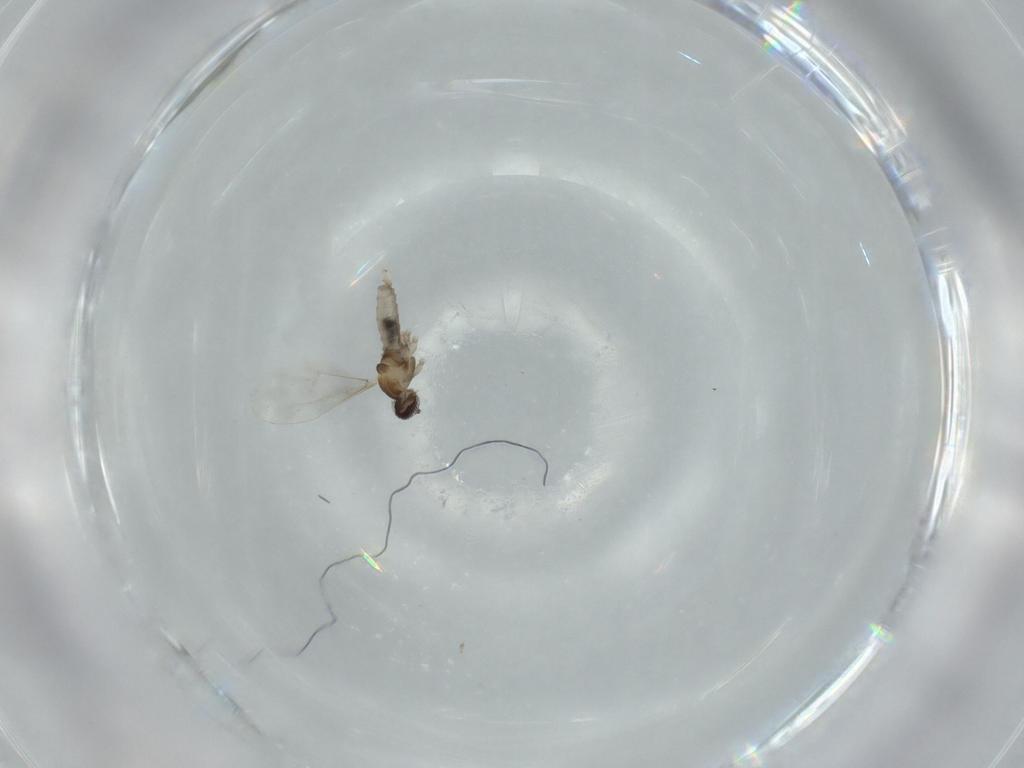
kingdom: Animalia
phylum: Arthropoda
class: Insecta
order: Diptera
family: Cecidomyiidae
